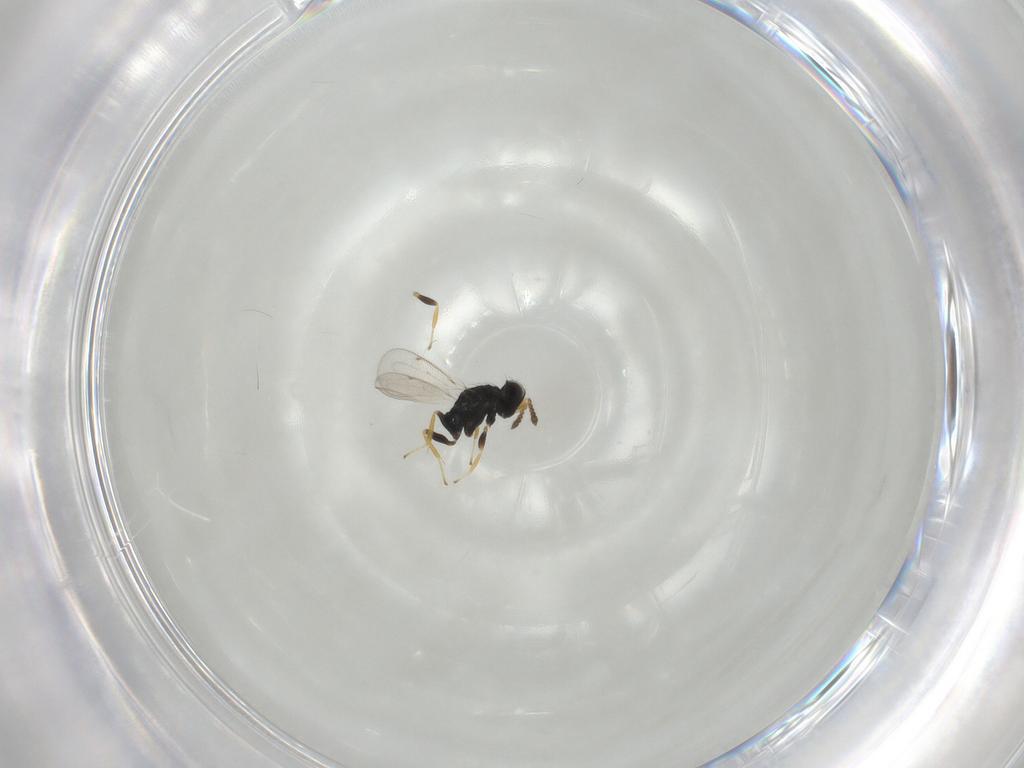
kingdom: Animalia
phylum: Arthropoda
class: Insecta
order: Hymenoptera
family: Eulophidae
